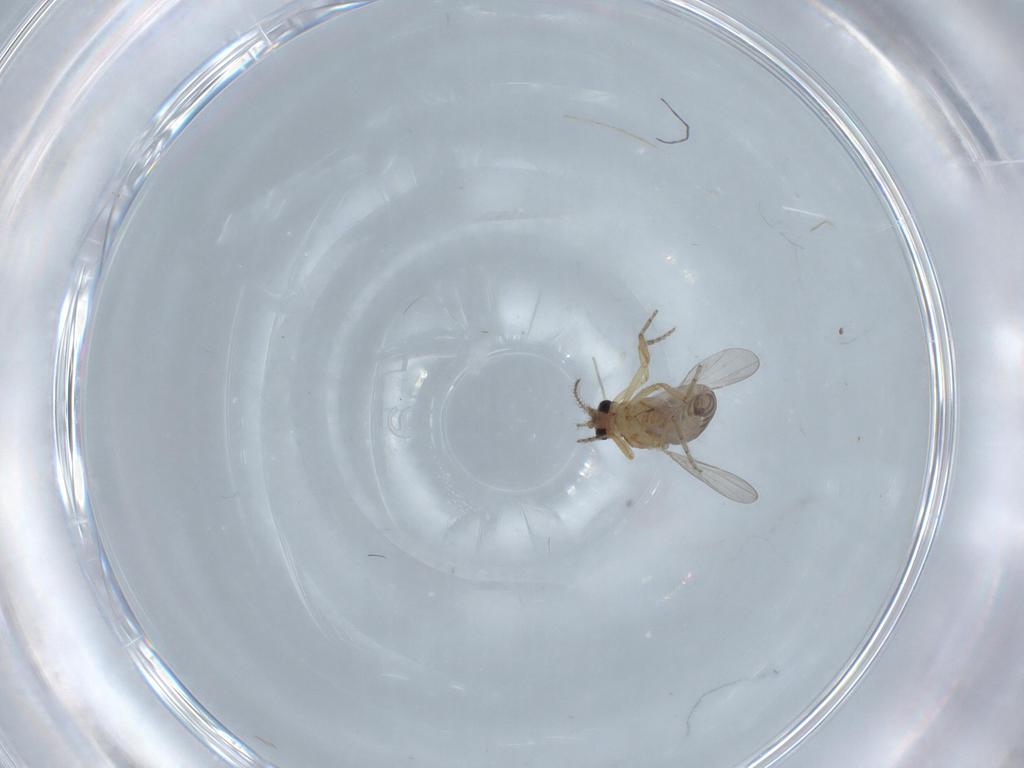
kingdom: Animalia
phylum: Arthropoda
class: Insecta
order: Diptera
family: Ceratopogonidae
